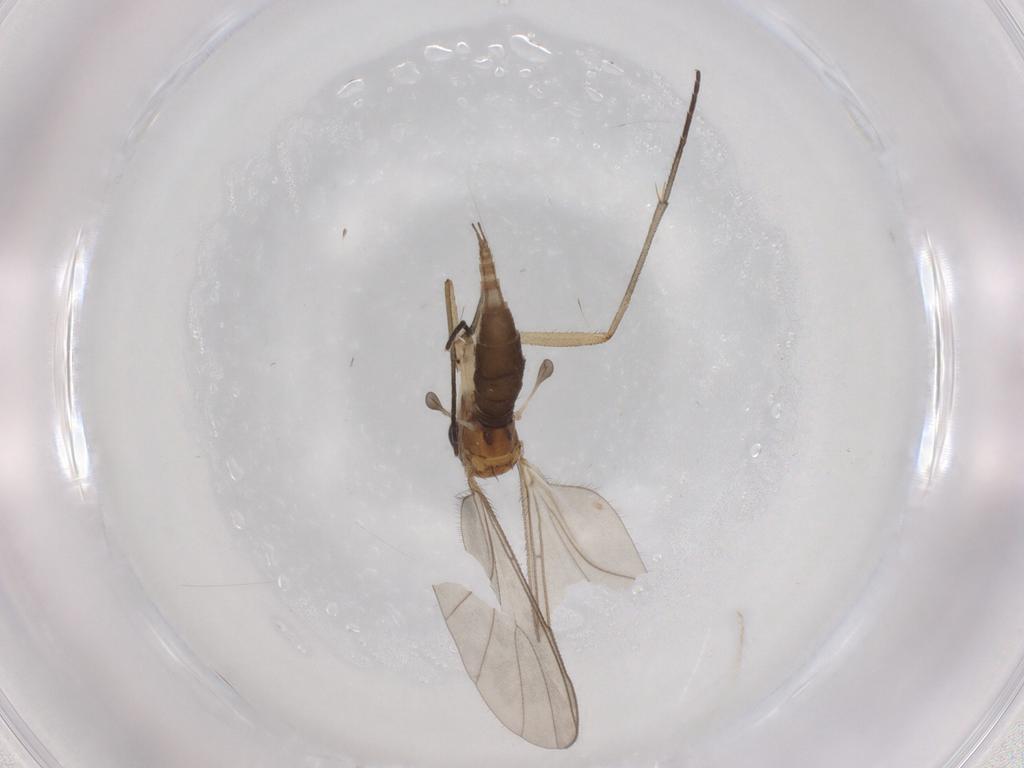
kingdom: Animalia
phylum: Arthropoda
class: Insecta
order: Diptera
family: Sciaridae
